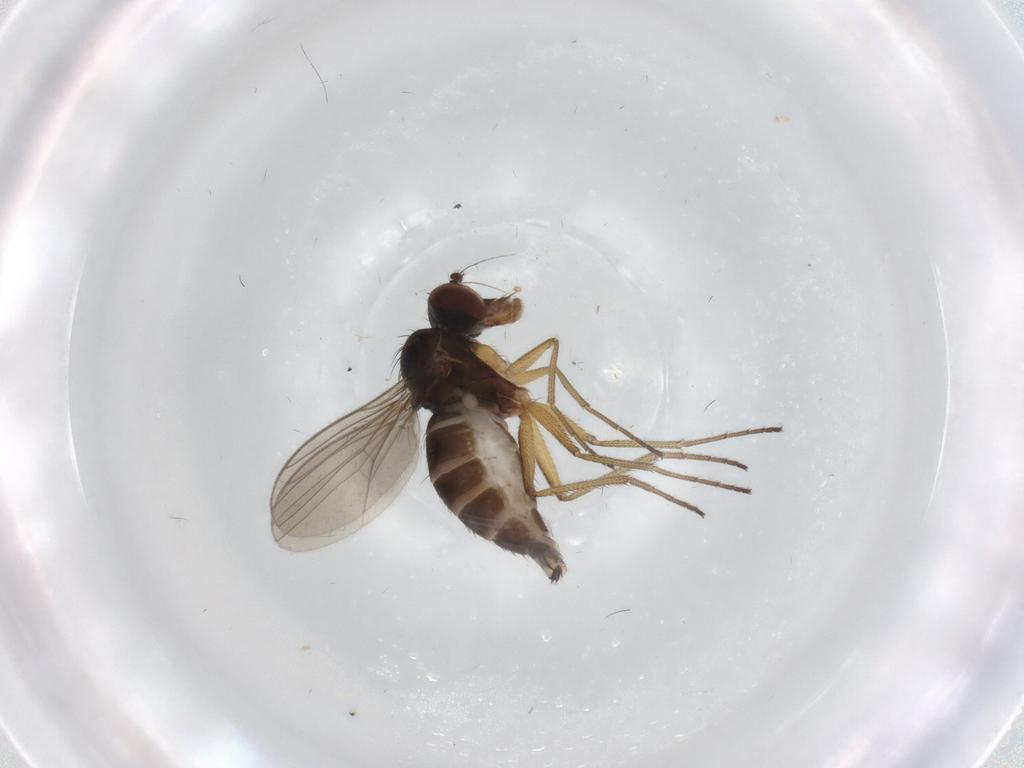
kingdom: Animalia
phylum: Arthropoda
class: Insecta
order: Diptera
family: Dolichopodidae
